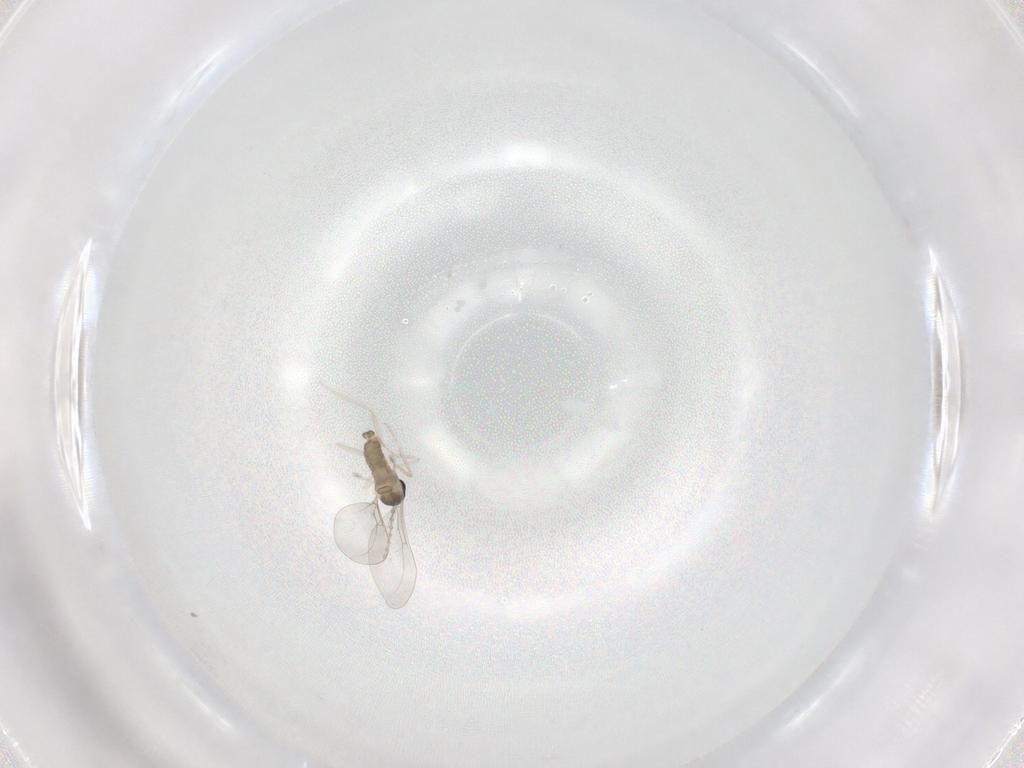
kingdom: Animalia
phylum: Arthropoda
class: Insecta
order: Diptera
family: Cecidomyiidae
